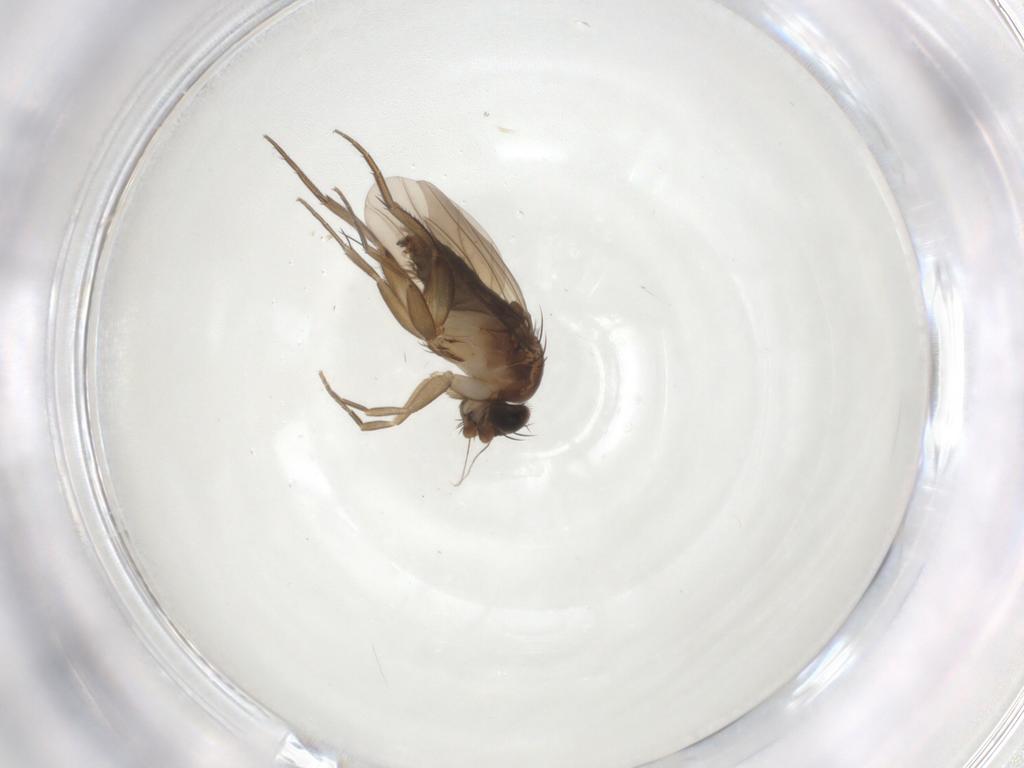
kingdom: Animalia
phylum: Arthropoda
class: Insecta
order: Diptera
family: Phoridae
